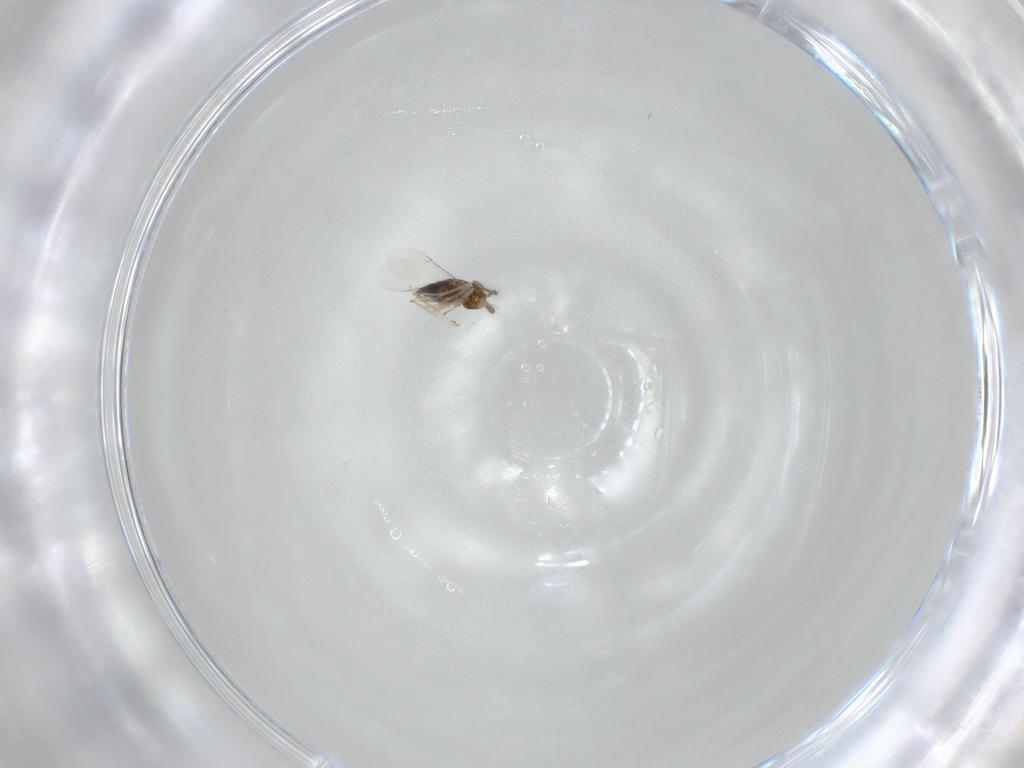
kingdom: Animalia
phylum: Arthropoda
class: Insecta
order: Hymenoptera
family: Encyrtidae
